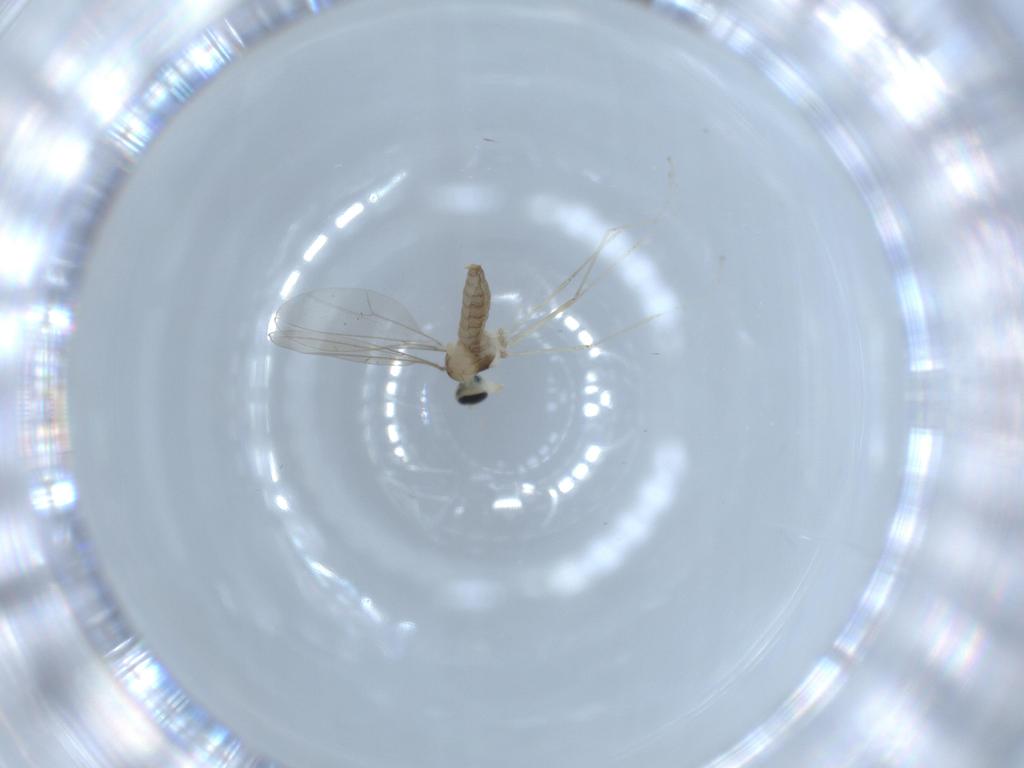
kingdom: Animalia
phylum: Arthropoda
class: Insecta
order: Diptera
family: Cecidomyiidae
